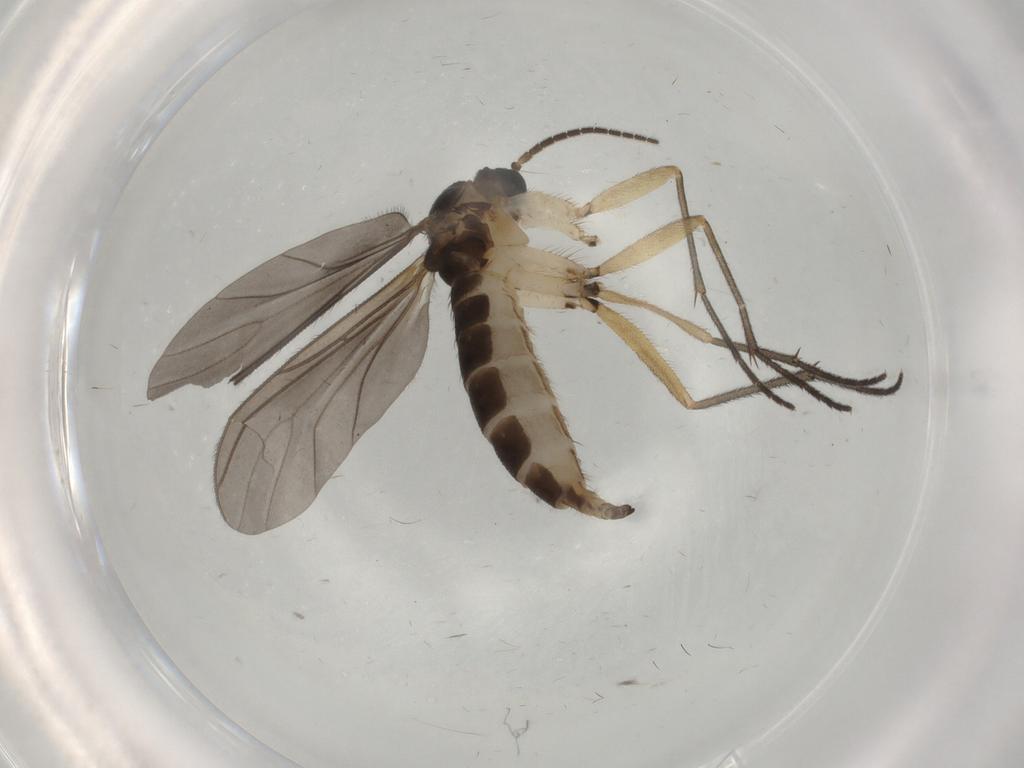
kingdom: Animalia
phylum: Arthropoda
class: Insecta
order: Diptera
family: Sciaridae
